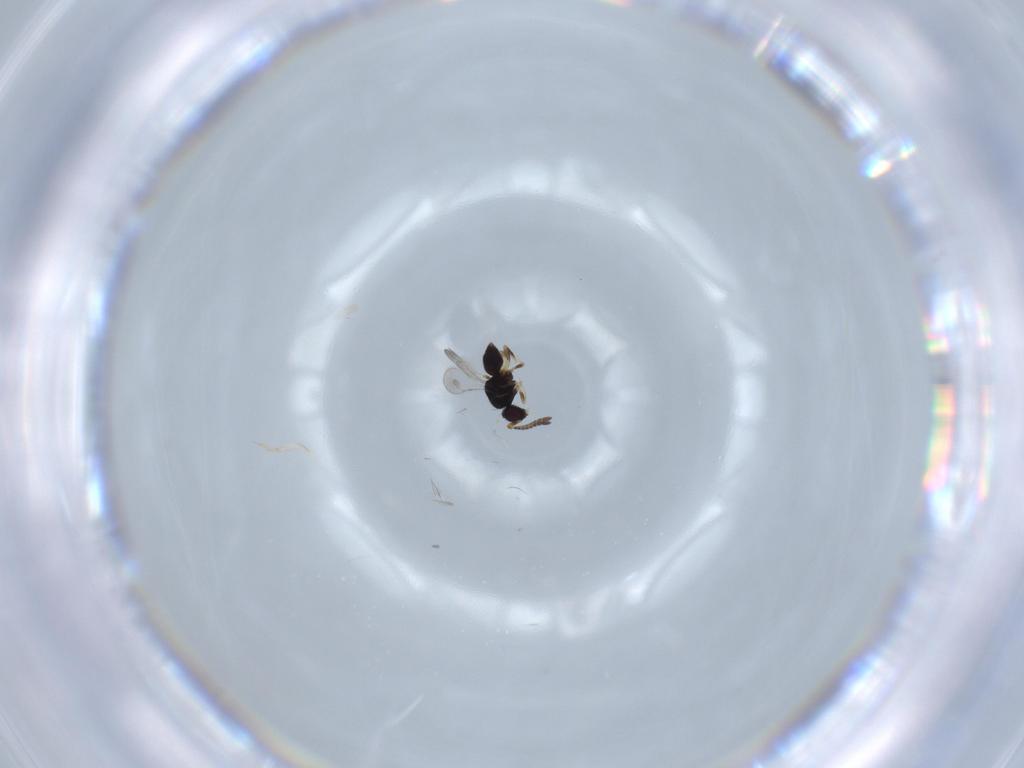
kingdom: Animalia
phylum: Arthropoda
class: Insecta
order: Hymenoptera
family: Ceraphronidae
